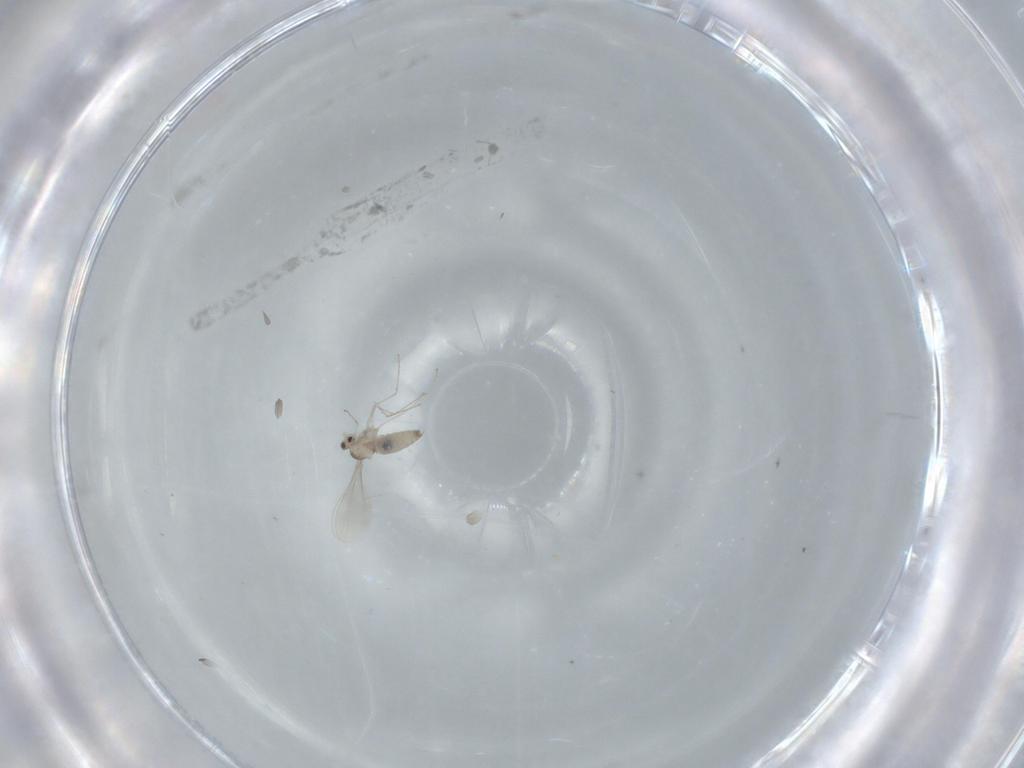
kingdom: Animalia
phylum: Arthropoda
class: Insecta
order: Diptera
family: Cecidomyiidae
